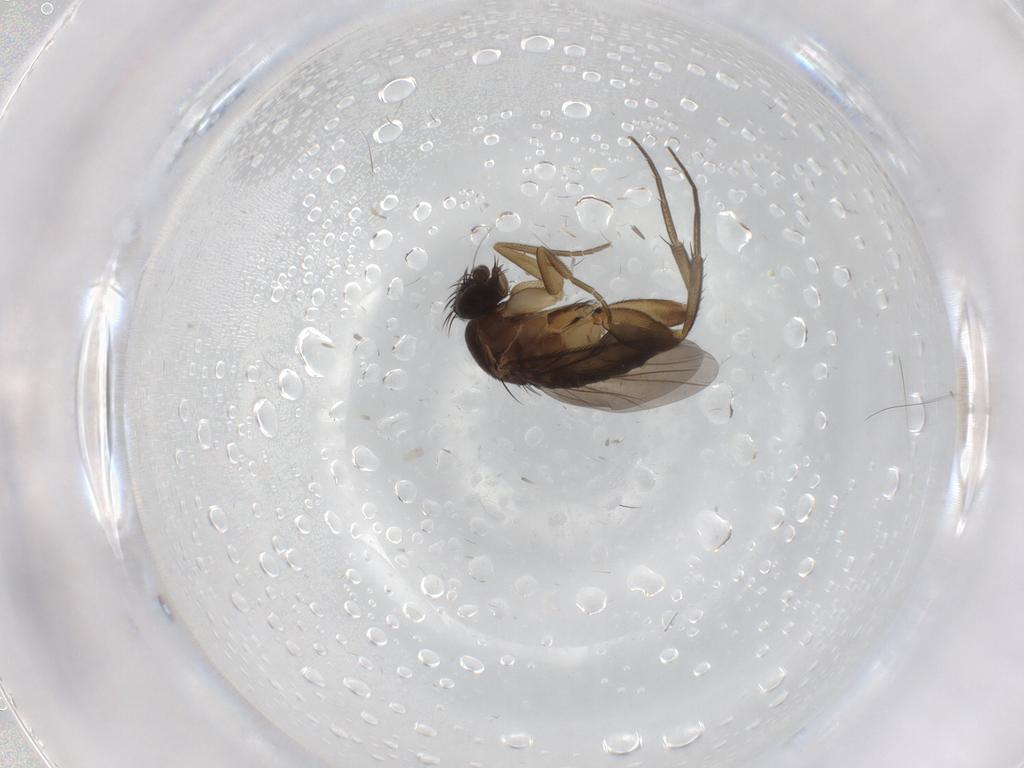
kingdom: Animalia
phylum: Arthropoda
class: Insecta
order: Diptera
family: Phoridae
